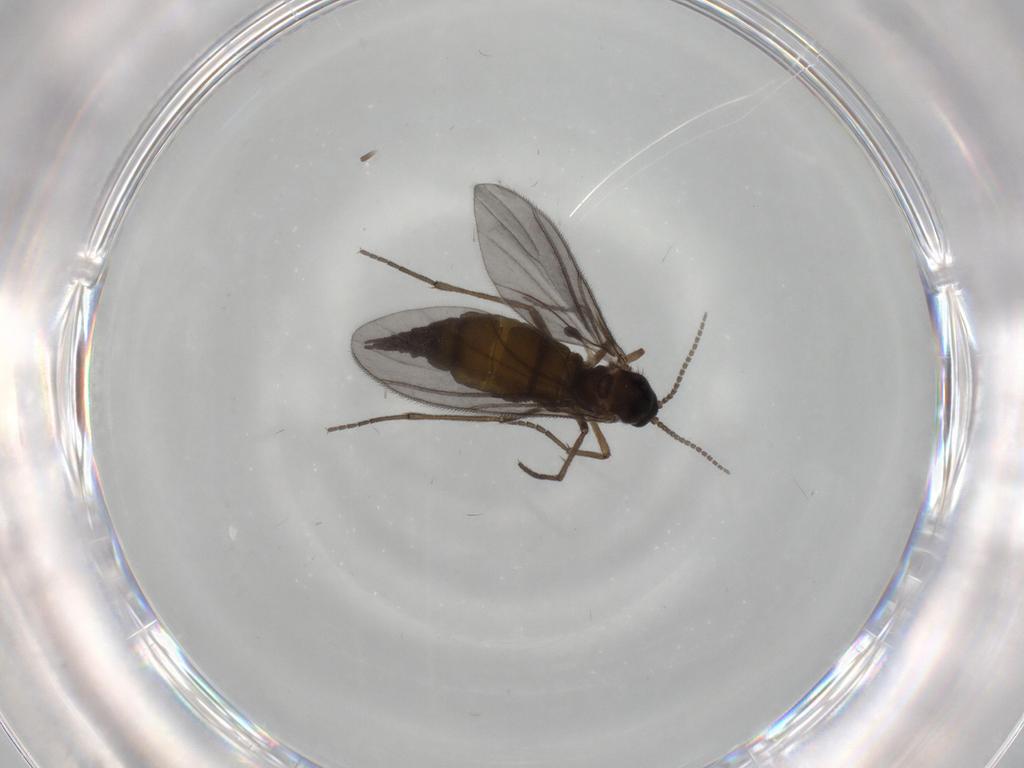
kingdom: Animalia
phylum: Arthropoda
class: Insecta
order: Diptera
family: Sciaridae
